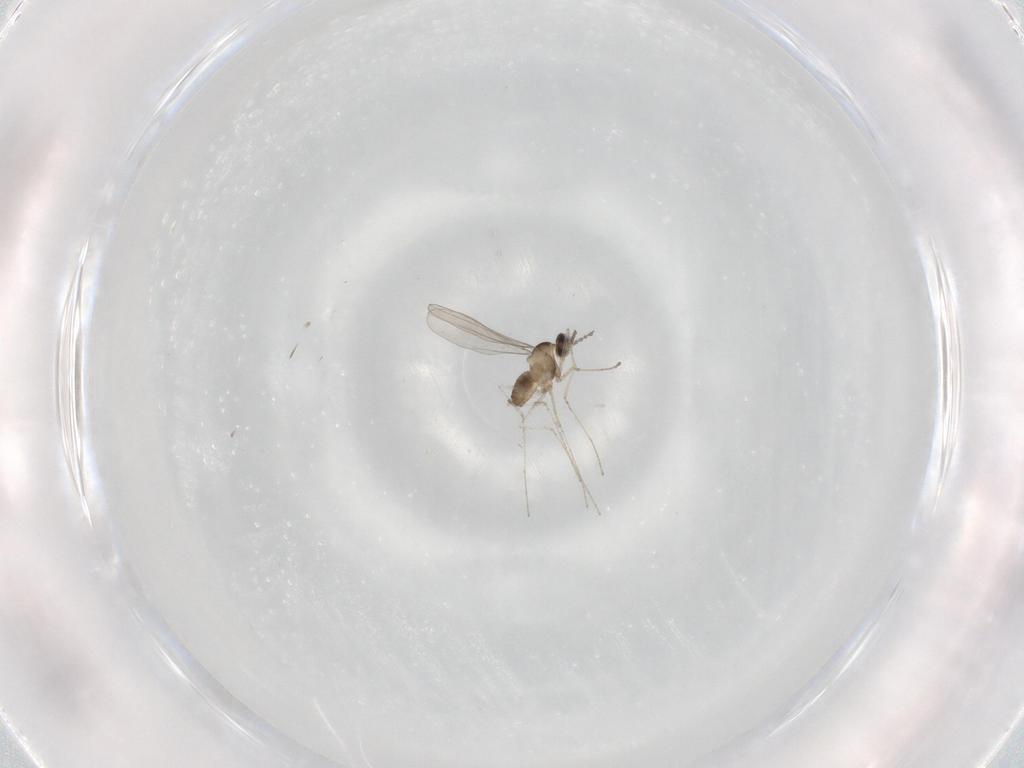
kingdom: Animalia
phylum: Arthropoda
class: Insecta
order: Diptera
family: Cecidomyiidae
